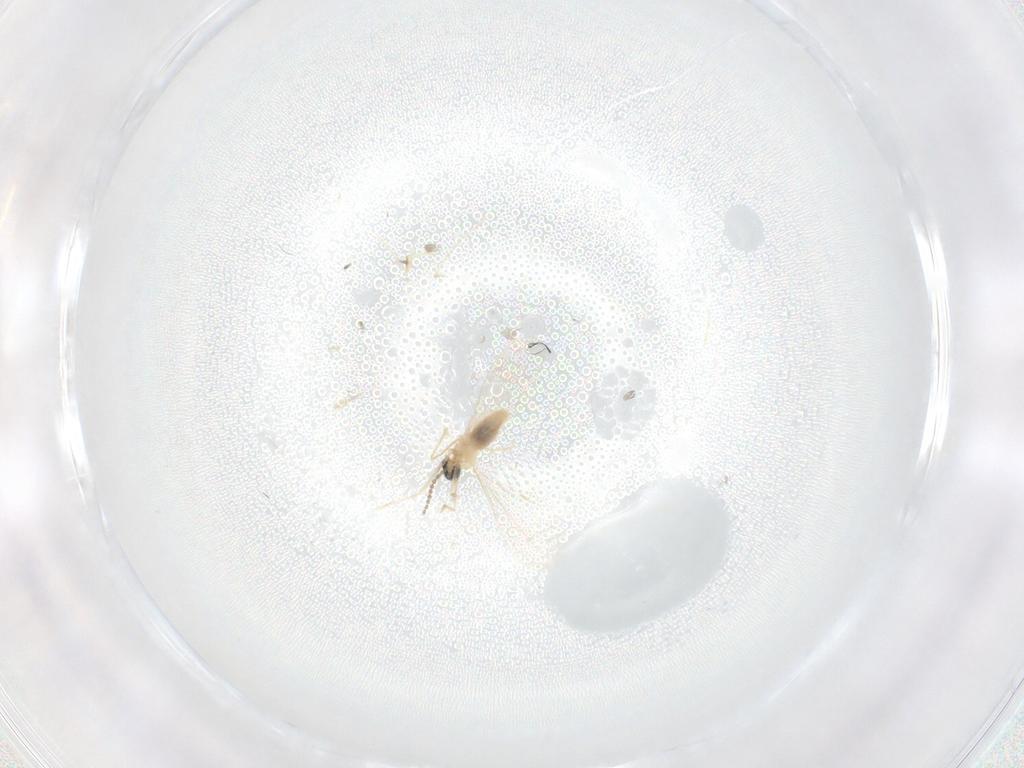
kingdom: Animalia
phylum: Arthropoda
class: Insecta
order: Diptera
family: Cecidomyiidae
